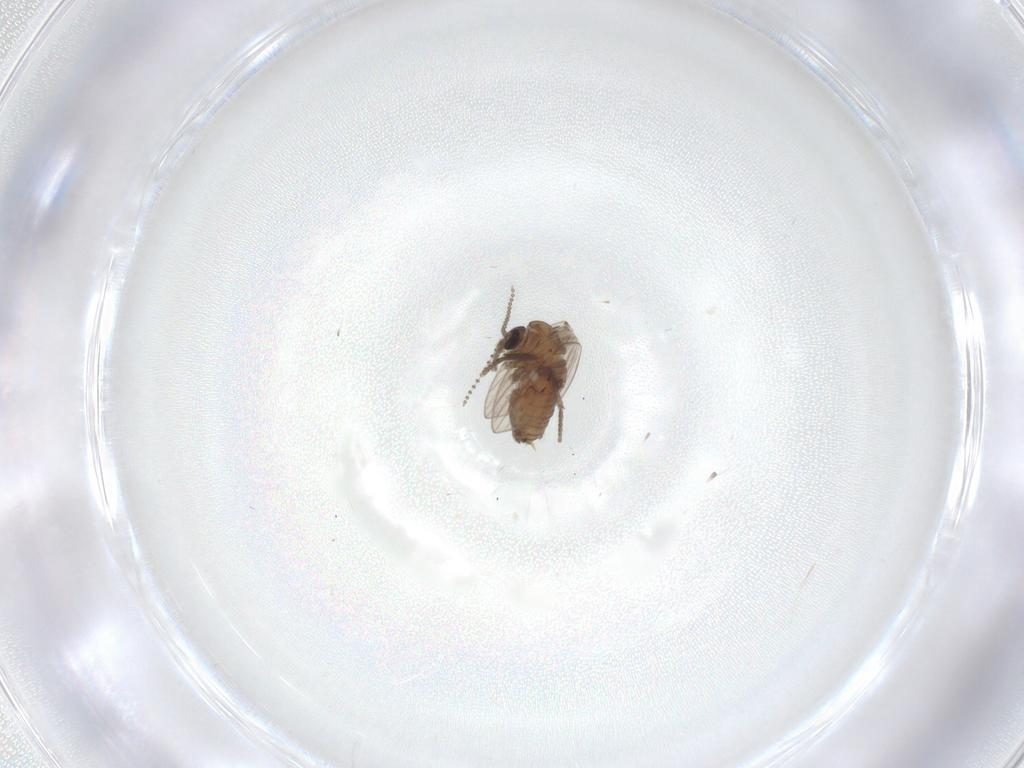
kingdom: Animalia
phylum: Arthropoda
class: Insecta
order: Diptera
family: Psychodidae
